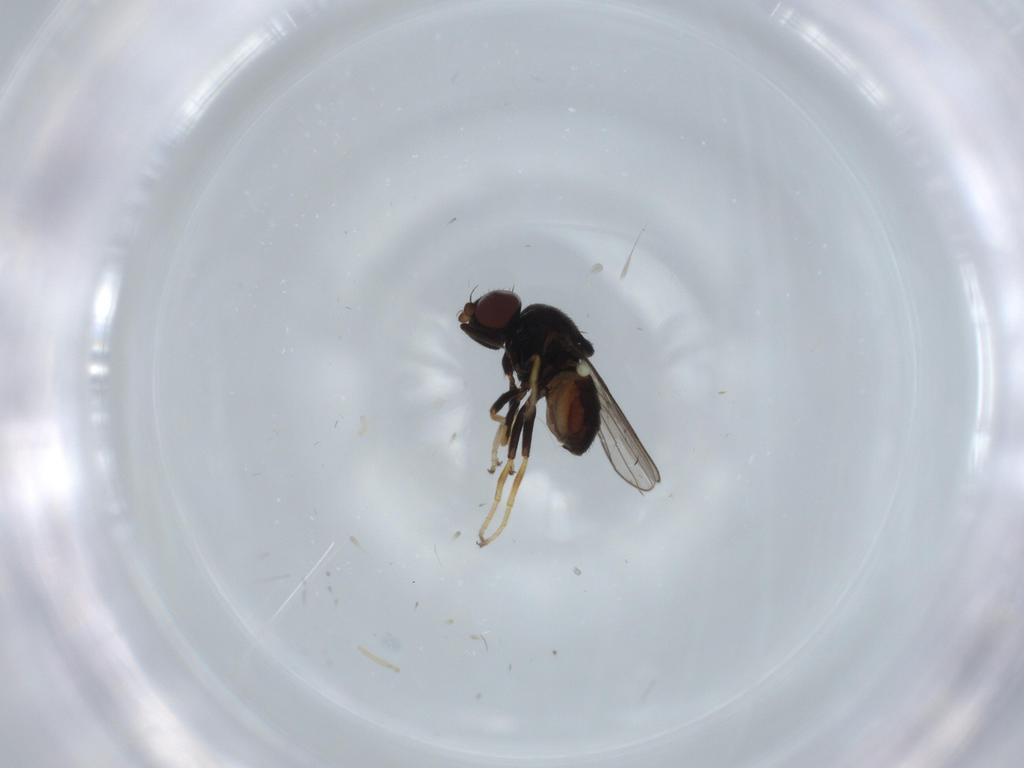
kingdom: Animalia
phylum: Arthropoda
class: Insecta
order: Diptera
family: Chloropidae
